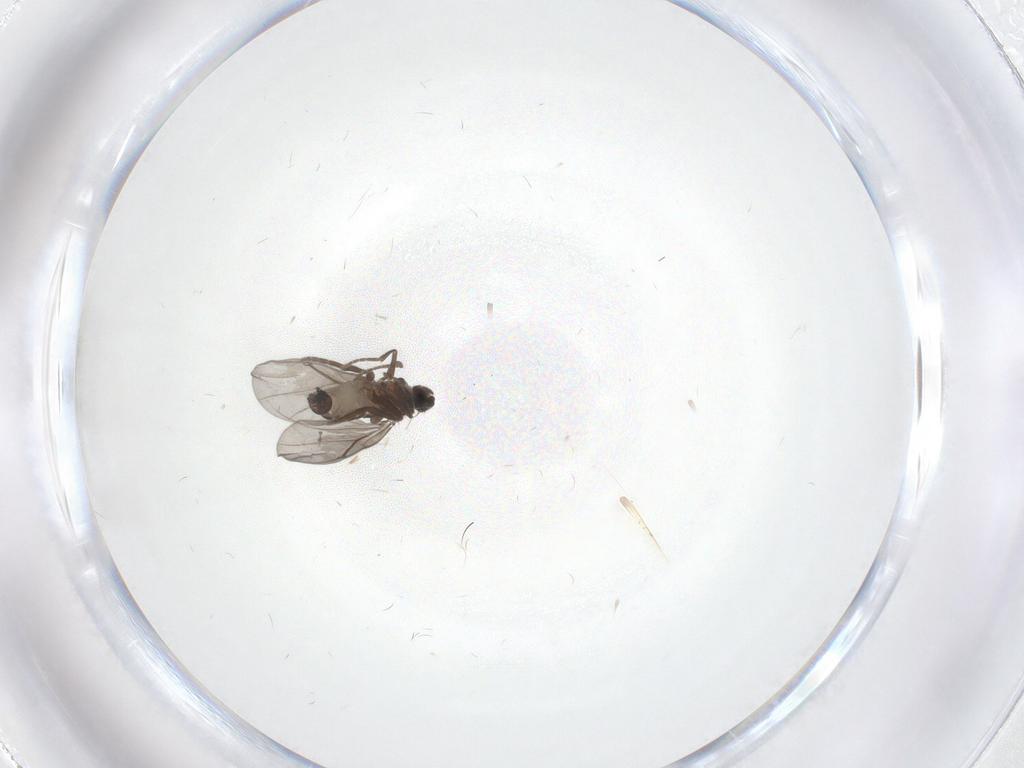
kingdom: Animalia
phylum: Arthropoda
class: Insecta
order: Diptera
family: Psychodidae
